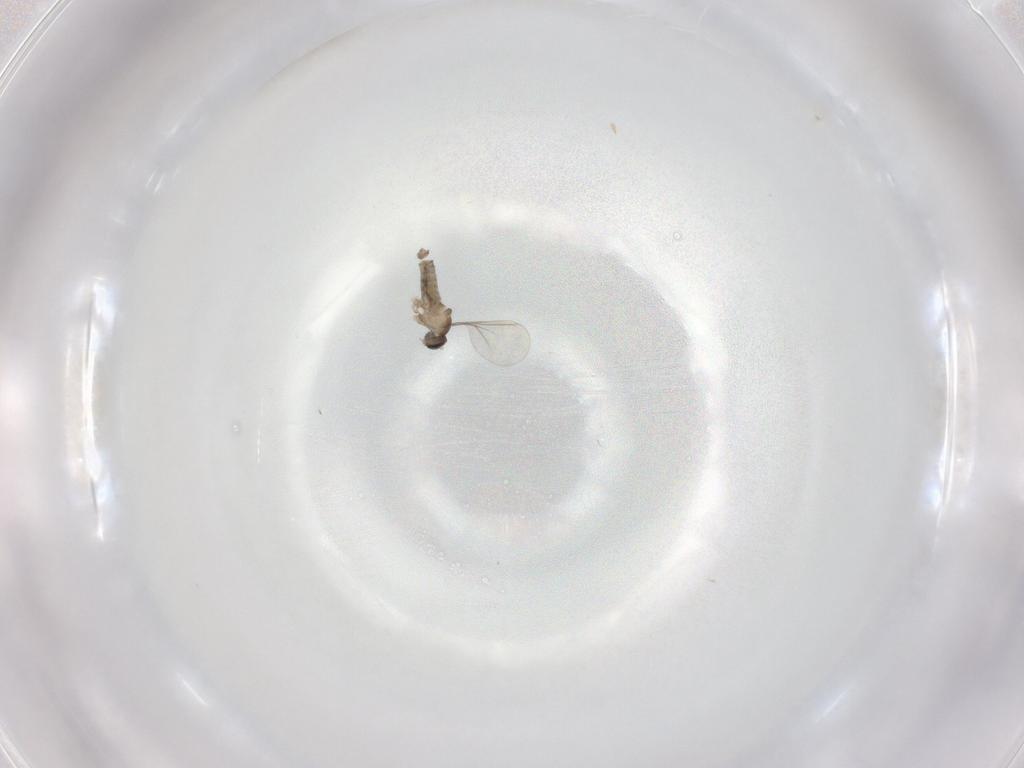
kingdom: Animalia
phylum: Arthropoda
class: Insecta
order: Diptera
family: Cecidomyiidae
